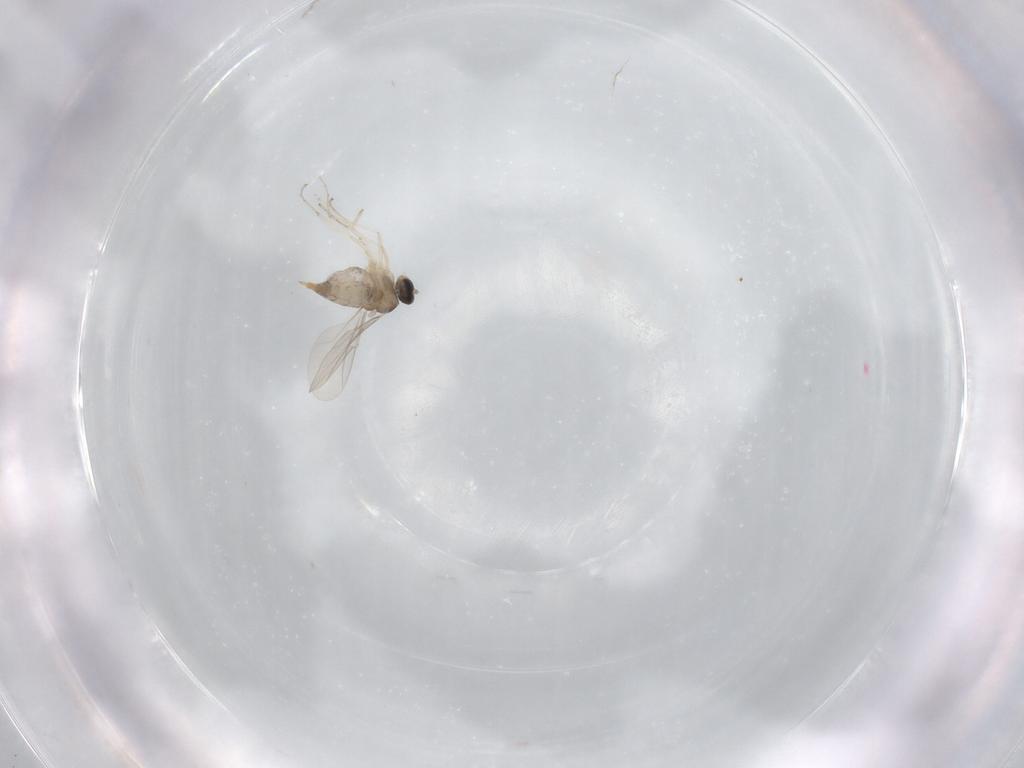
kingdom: Animalia
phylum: Arthropoda
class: Insecta
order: Diptera
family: Cecidomyiidae
